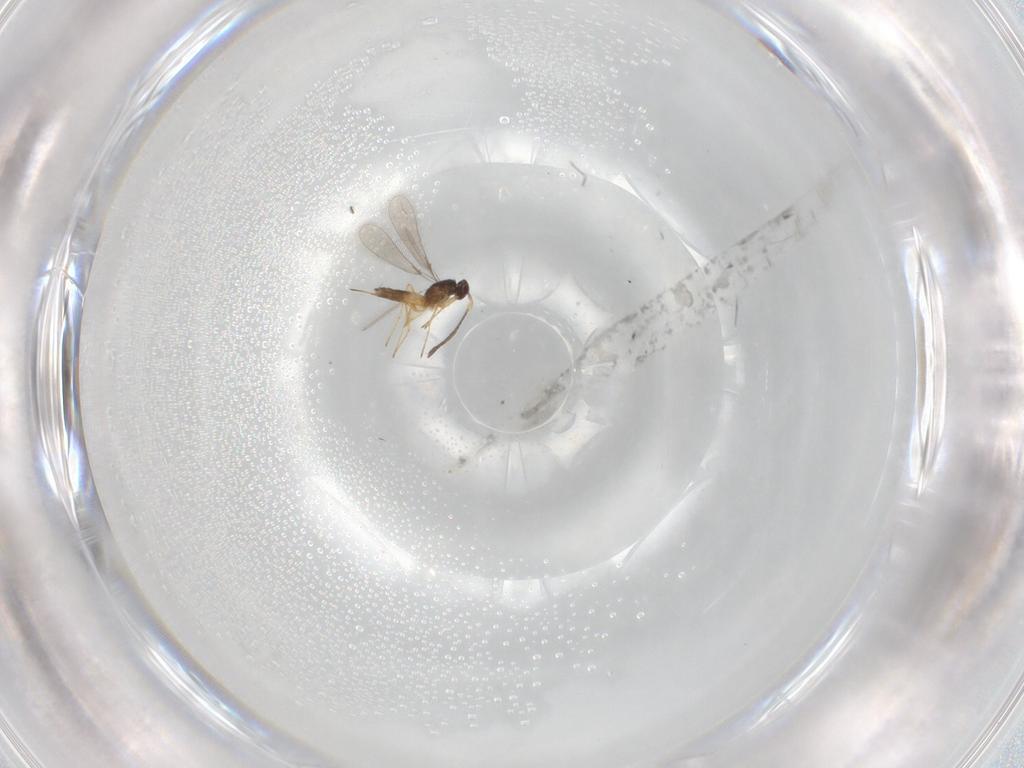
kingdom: Animalia
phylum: Arthropoda
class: Insecta
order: Hymenoptera
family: Mymaridae
